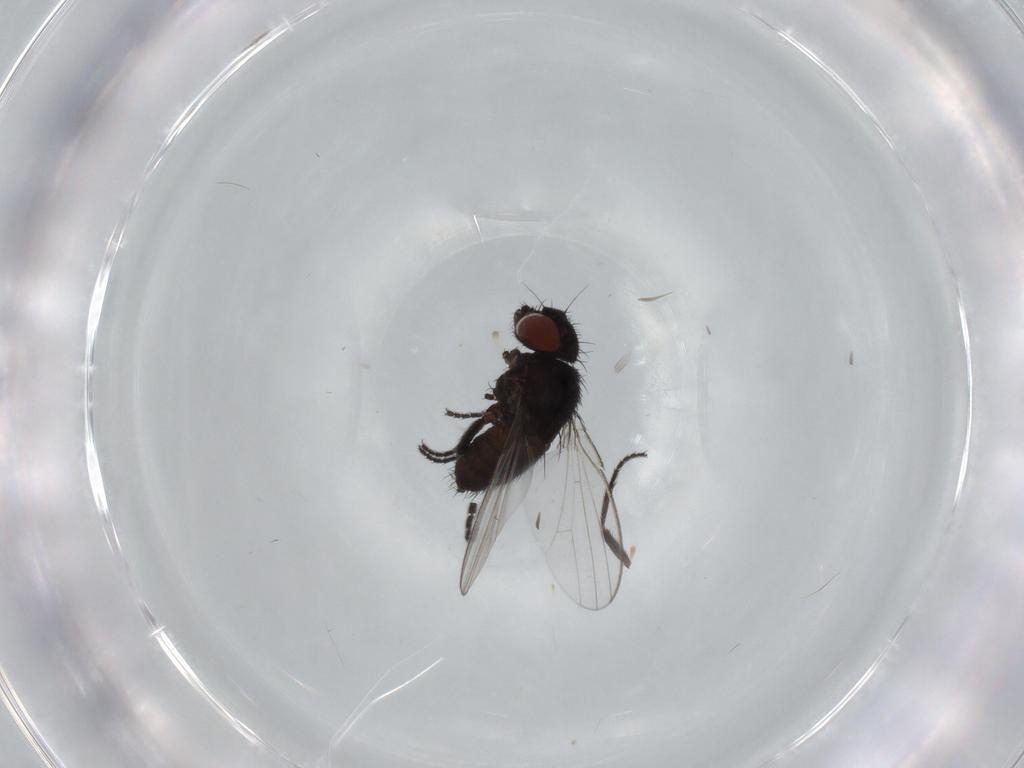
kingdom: Animalia
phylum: Arthropoda
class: Insecta
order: Diptera
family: Sciaridae
